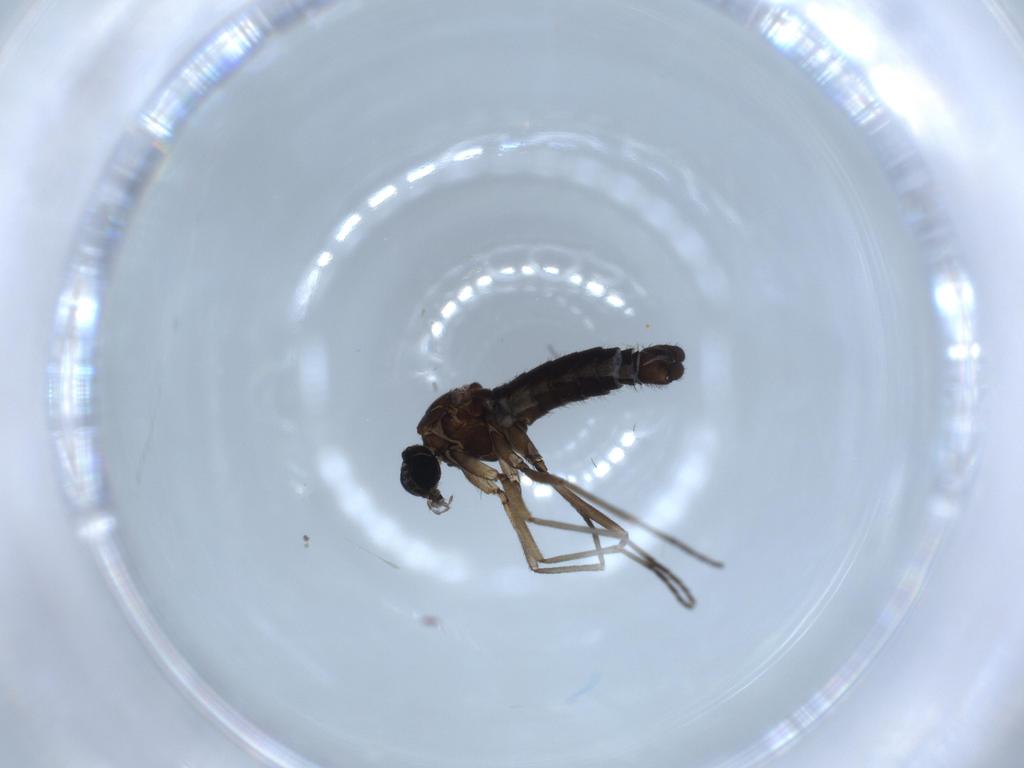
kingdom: Animalia
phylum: Arthropoda
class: Insecta
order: Diptera
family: Sciaridae
